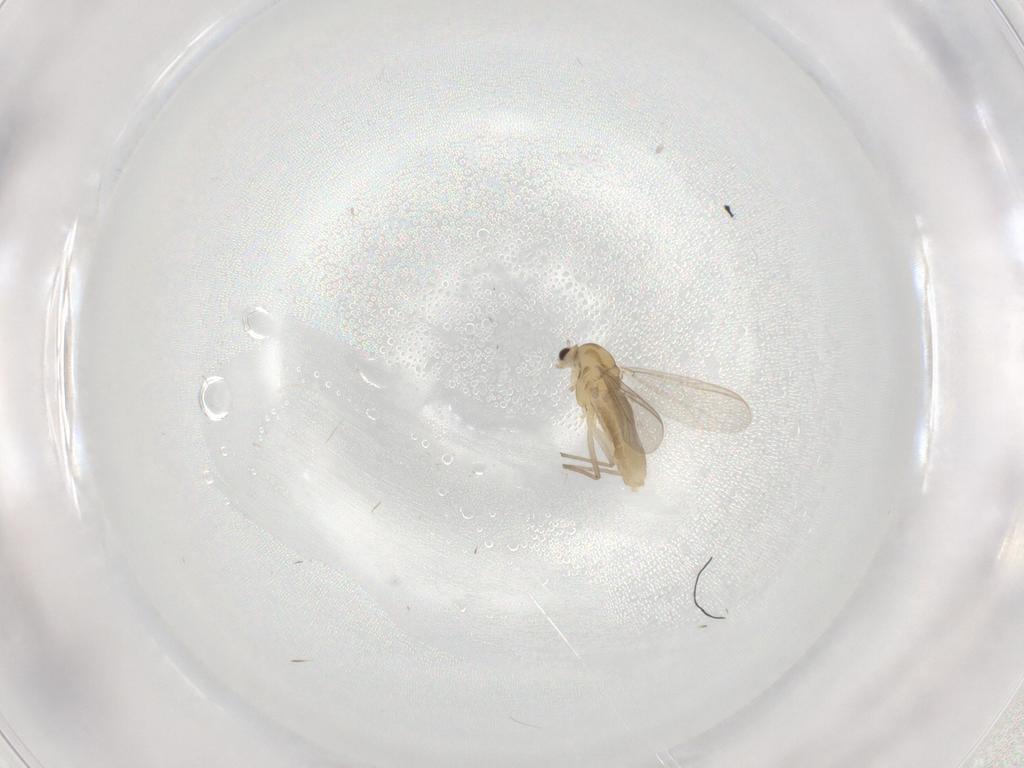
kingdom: Animalia
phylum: Arthropoda
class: Insecta
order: Diptera
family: Chironomidae
